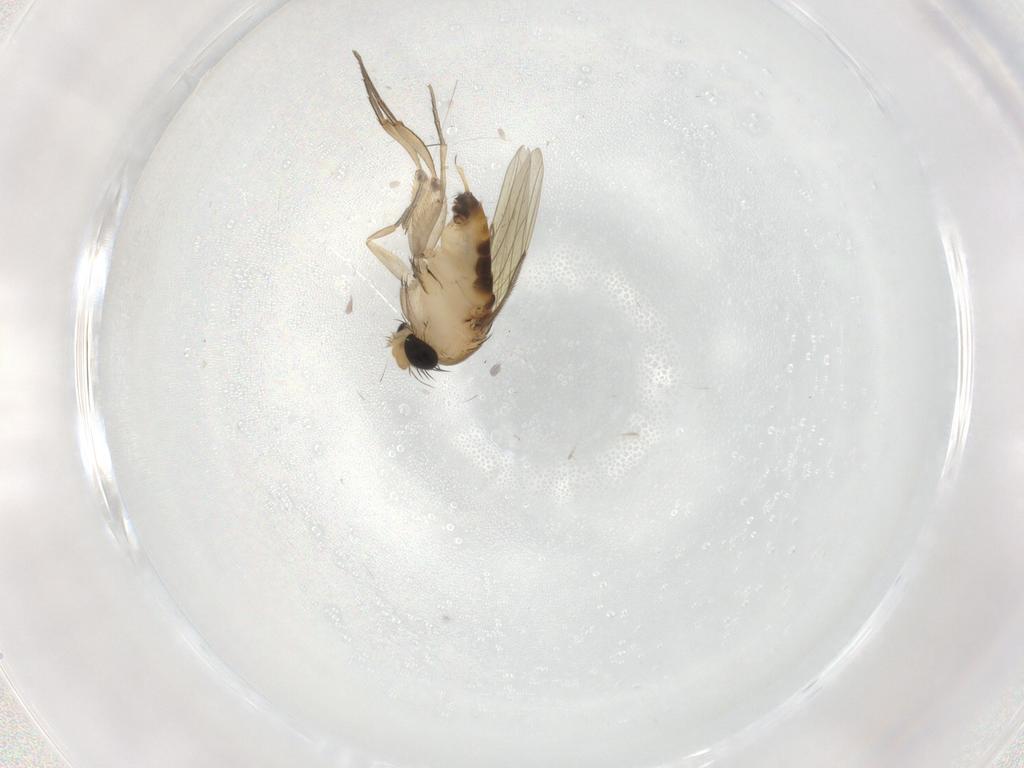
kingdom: Animalia
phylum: Arthropoda
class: Insecta
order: Diptera
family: Phoridae
